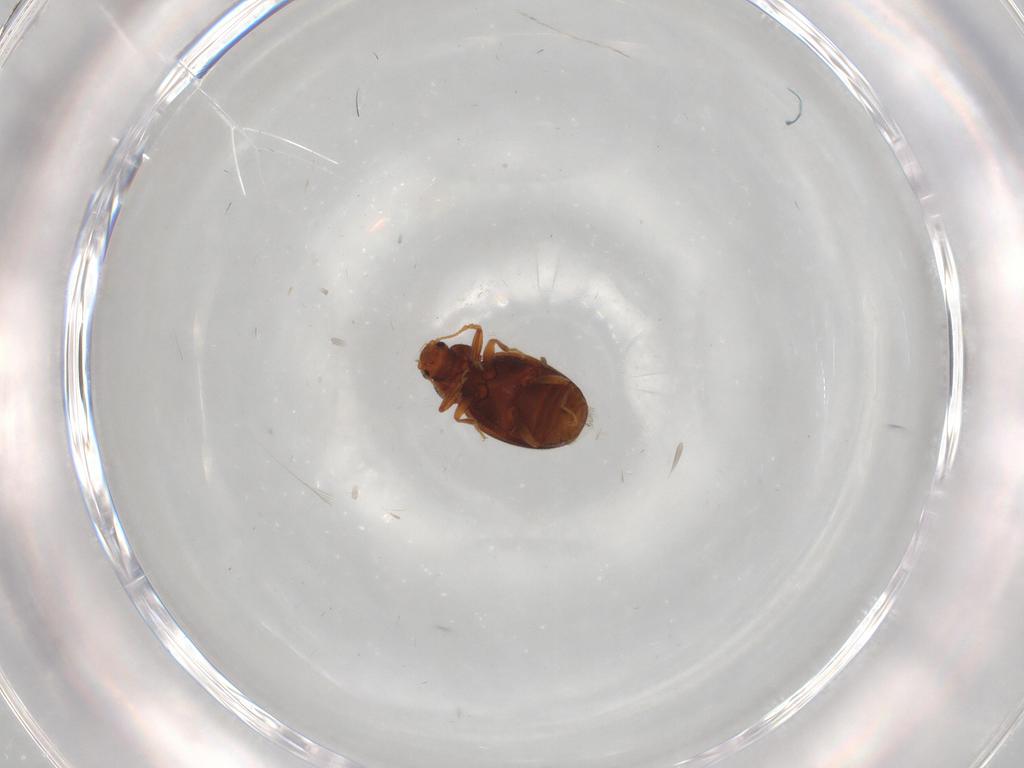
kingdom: Animalia
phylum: Arthropoda
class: Insecta
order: Coleoptera
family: Latridiidae
